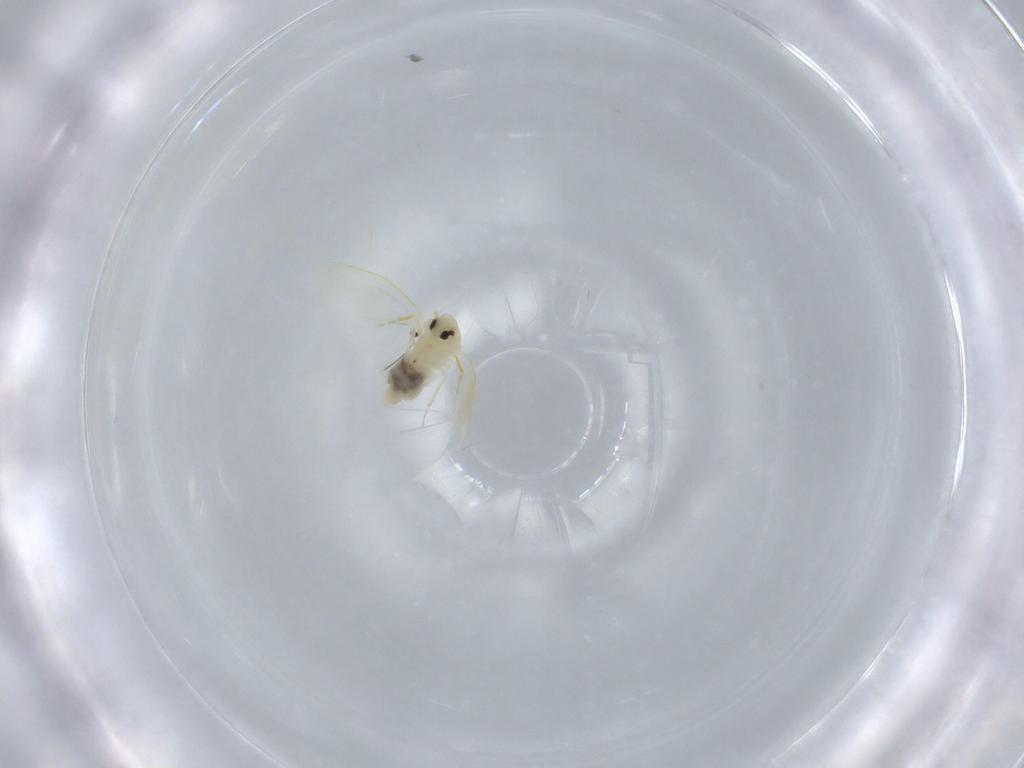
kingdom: Animalia
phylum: Arthropoda
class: Insecta
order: Hemiptera
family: Aleyrodidae
